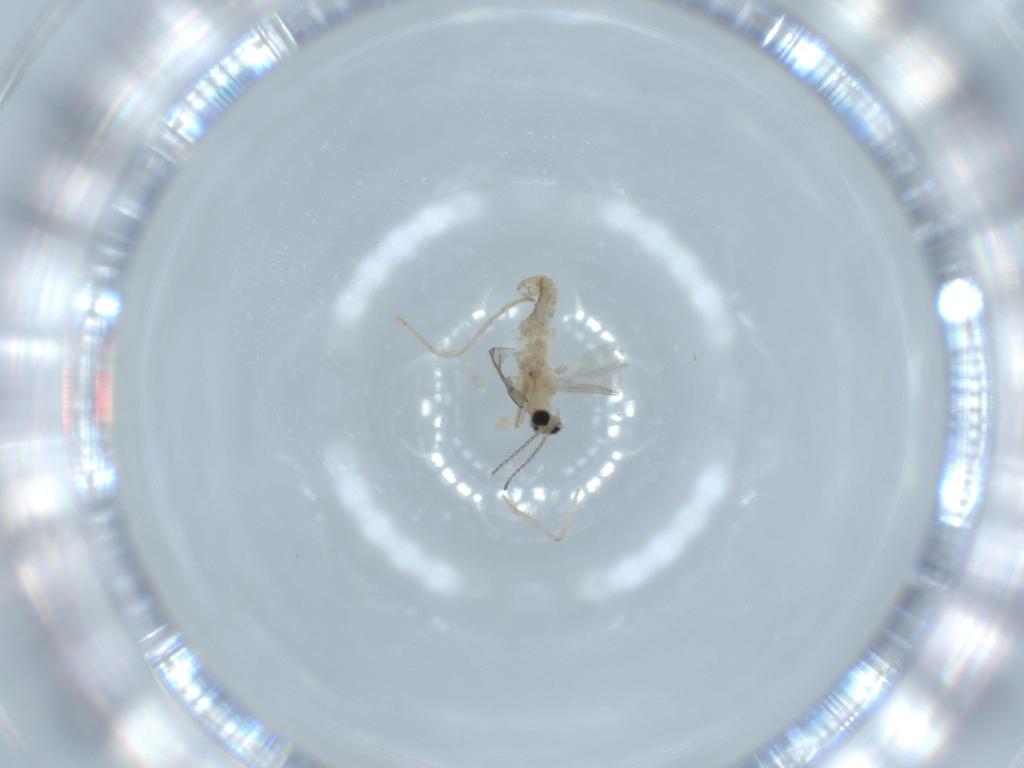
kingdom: Animalia
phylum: Arthropoda
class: Insecta
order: Diptera
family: Cecidomyiidae
